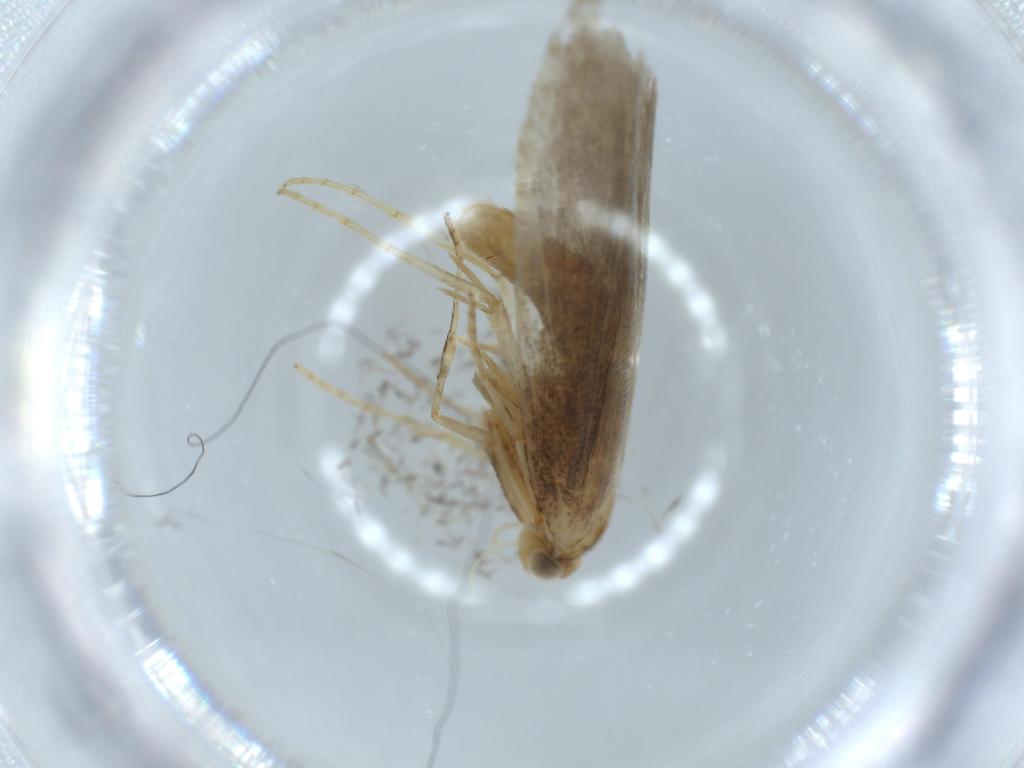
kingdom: Animalia
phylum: Arthropoda
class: Insecta
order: Lepidoptera
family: Argyresthiidae
